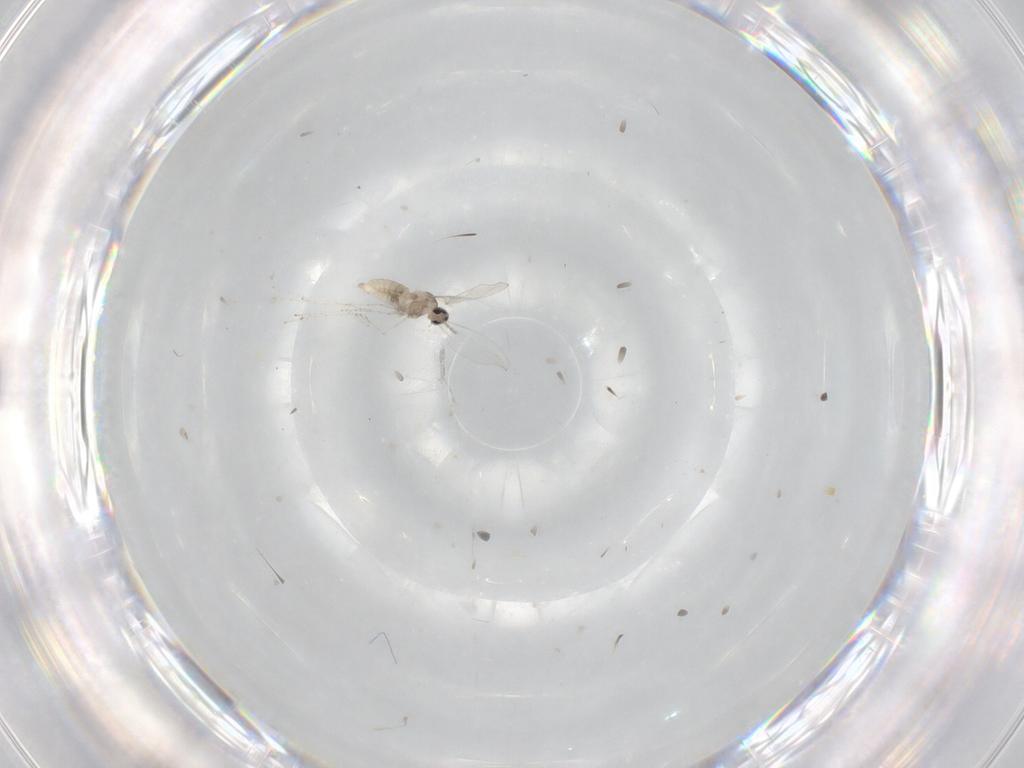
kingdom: Animalia
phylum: Arthropoda
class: Insecta
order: Diptera
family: Cecidomyiidae
